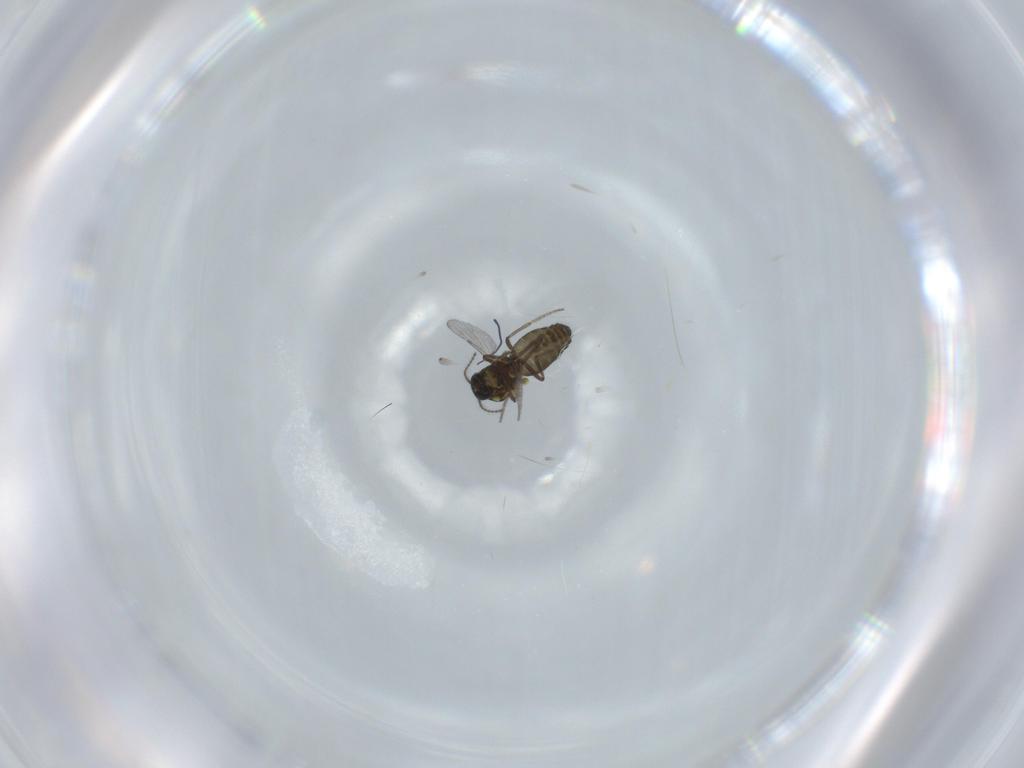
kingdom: Animalia
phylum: Arthropoda
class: Insecta
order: Diptera
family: Ceratopogonidae
